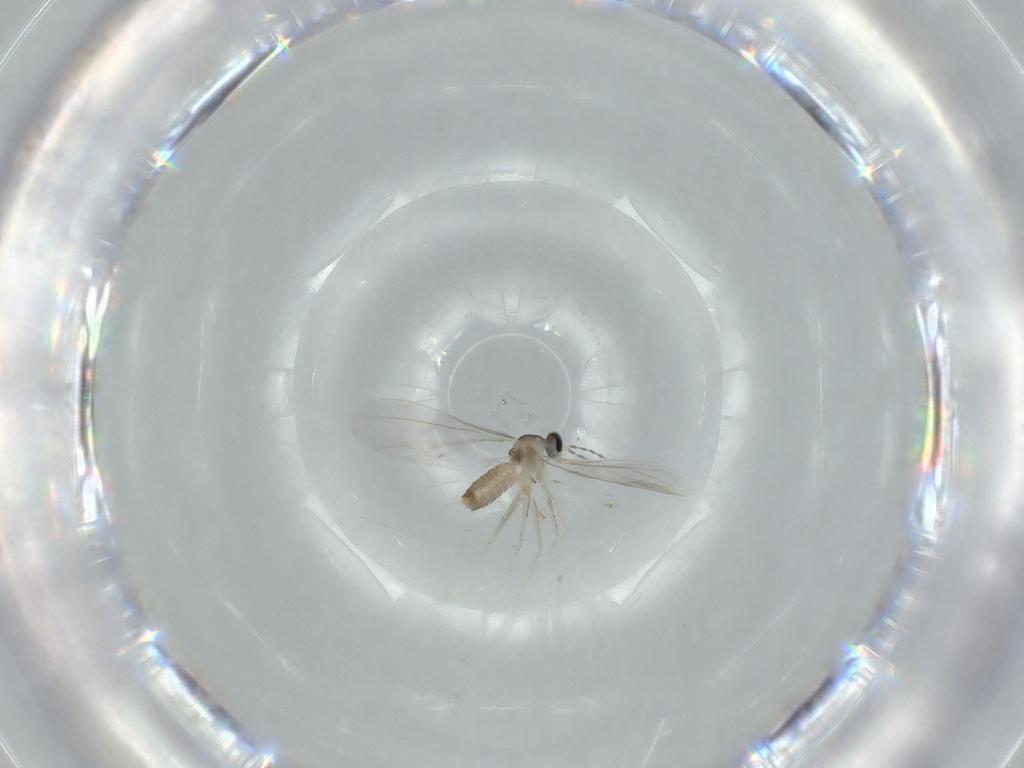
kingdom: Animalia
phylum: Arthropoda
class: Insecta
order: Diptera
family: Cecidomyiidae
